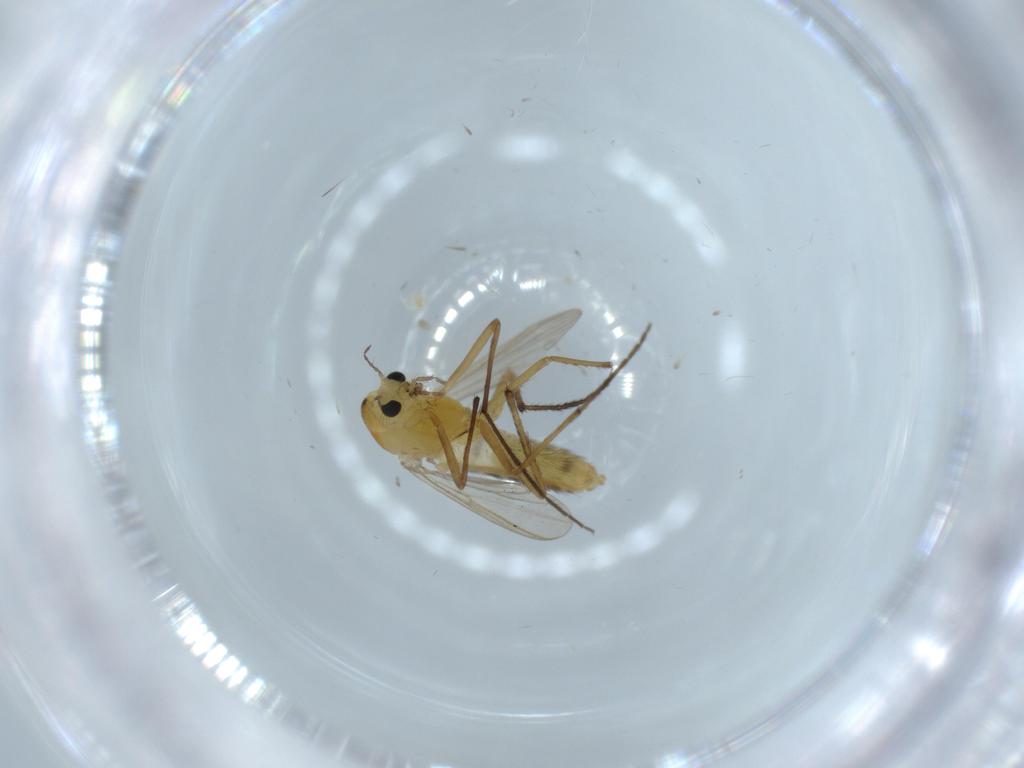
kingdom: Animalia
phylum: Arthropoda
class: Insecta
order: Diptera
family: Chironomidae
